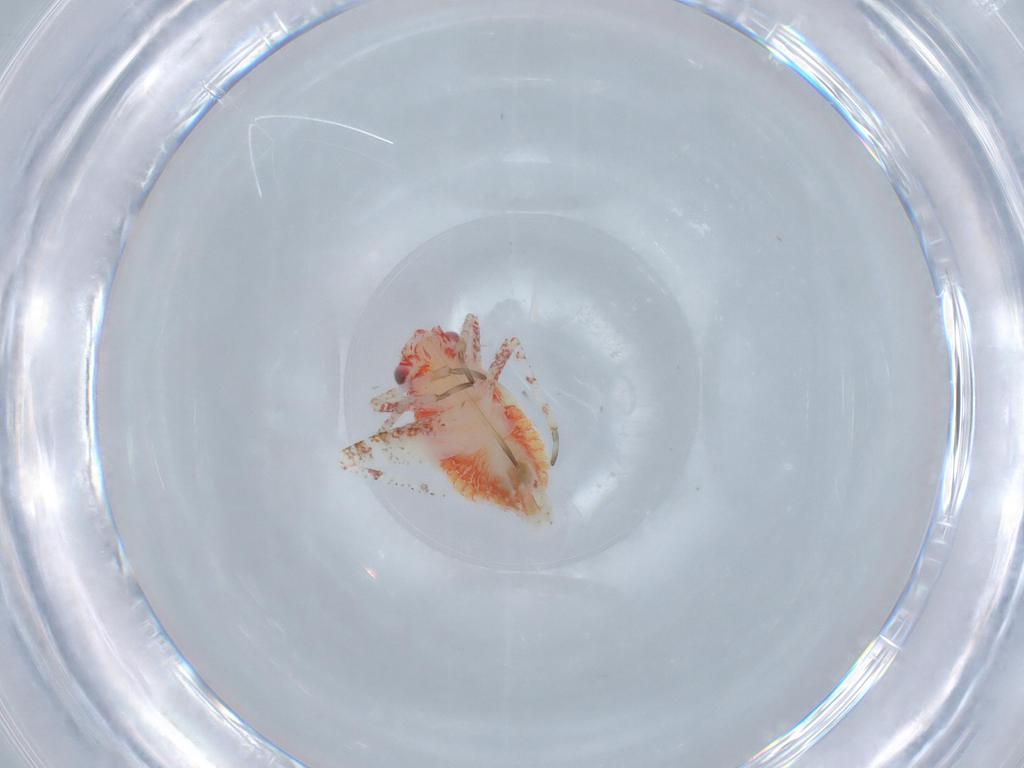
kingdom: Animalia
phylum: Arthropoda
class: Insecta
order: Hemiptera
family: Miridae
